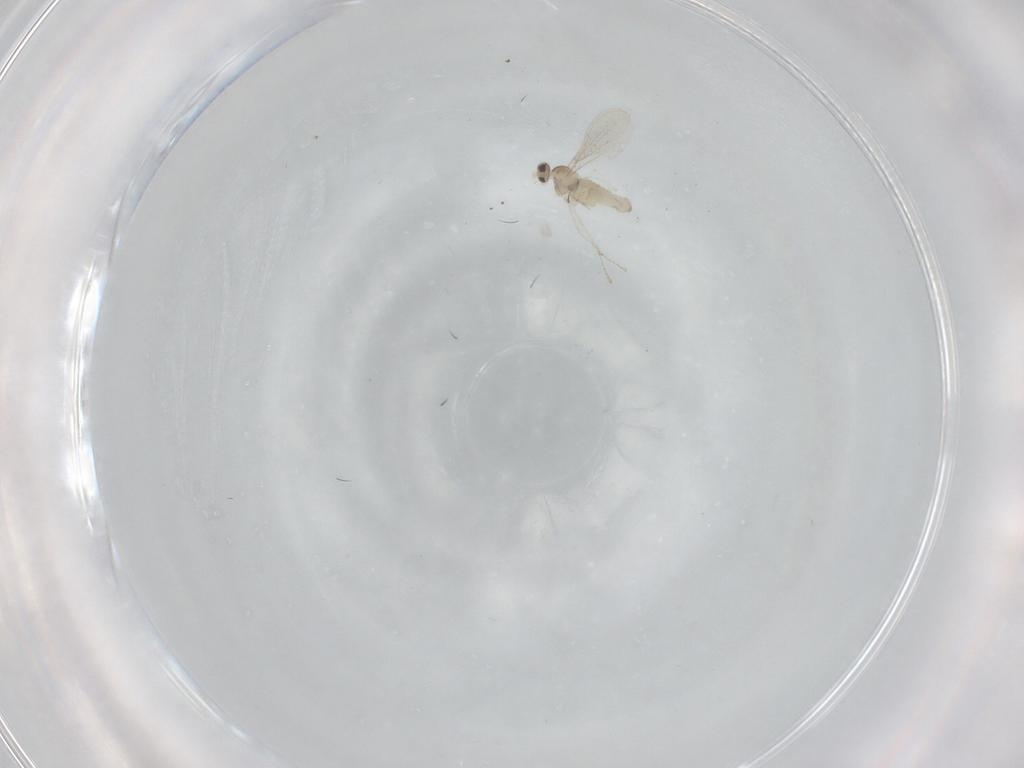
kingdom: Animalia
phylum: Arthropoda
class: Insecta
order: Diptera
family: Cecidomyiidae
